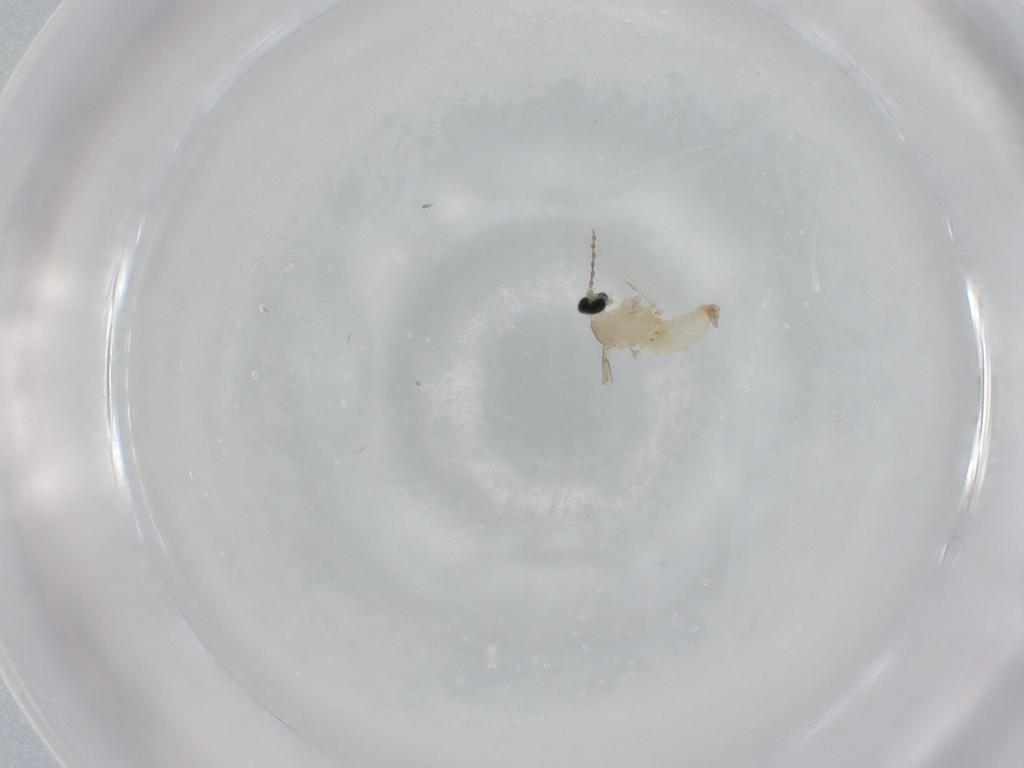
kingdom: Animalia
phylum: Arthropoda
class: Insecta
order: Diptera
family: Cecidomyiidae
